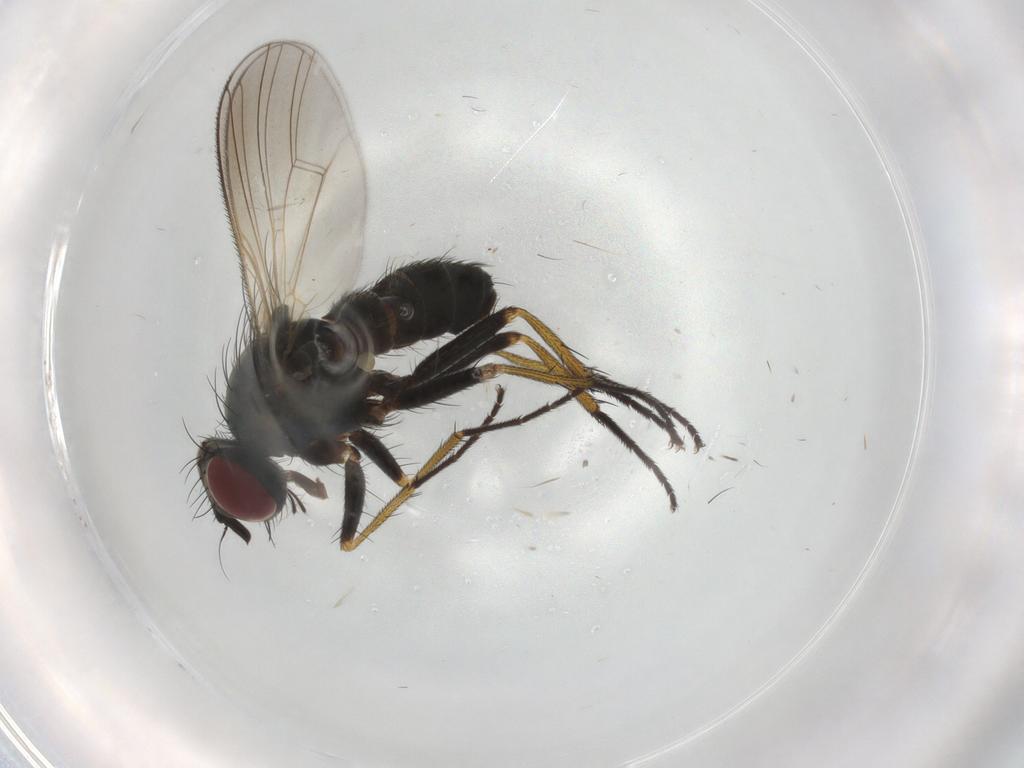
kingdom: Animalia
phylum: Arthropoda
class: Insecta
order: Diptera
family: Muscidae
